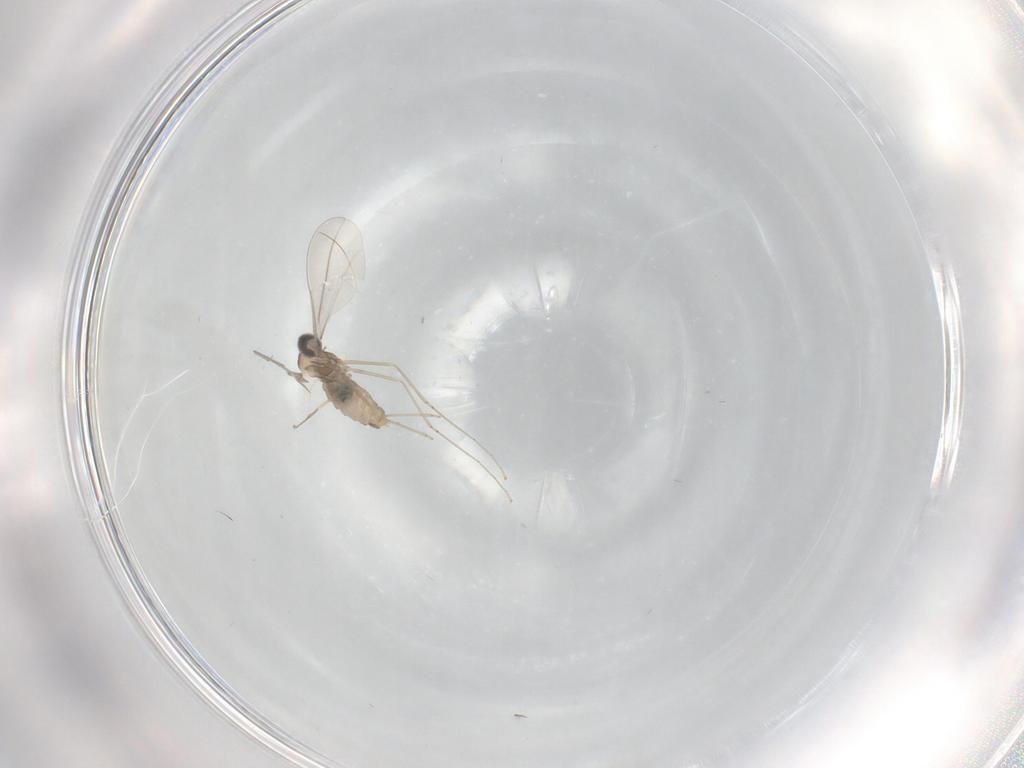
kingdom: Animalia
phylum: Arthropoda
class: Insecta
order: Diptera
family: Cecidomyiidae
